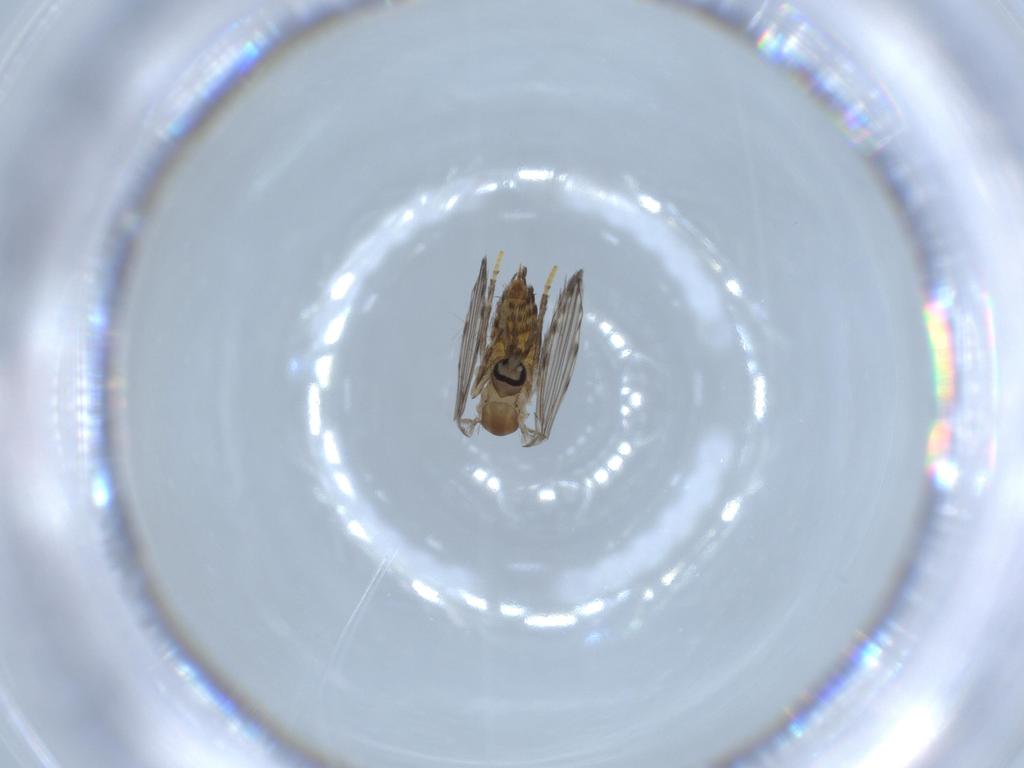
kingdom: Animalia
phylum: Arthropoda
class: Insecta
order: Diptera
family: Psychodidae
